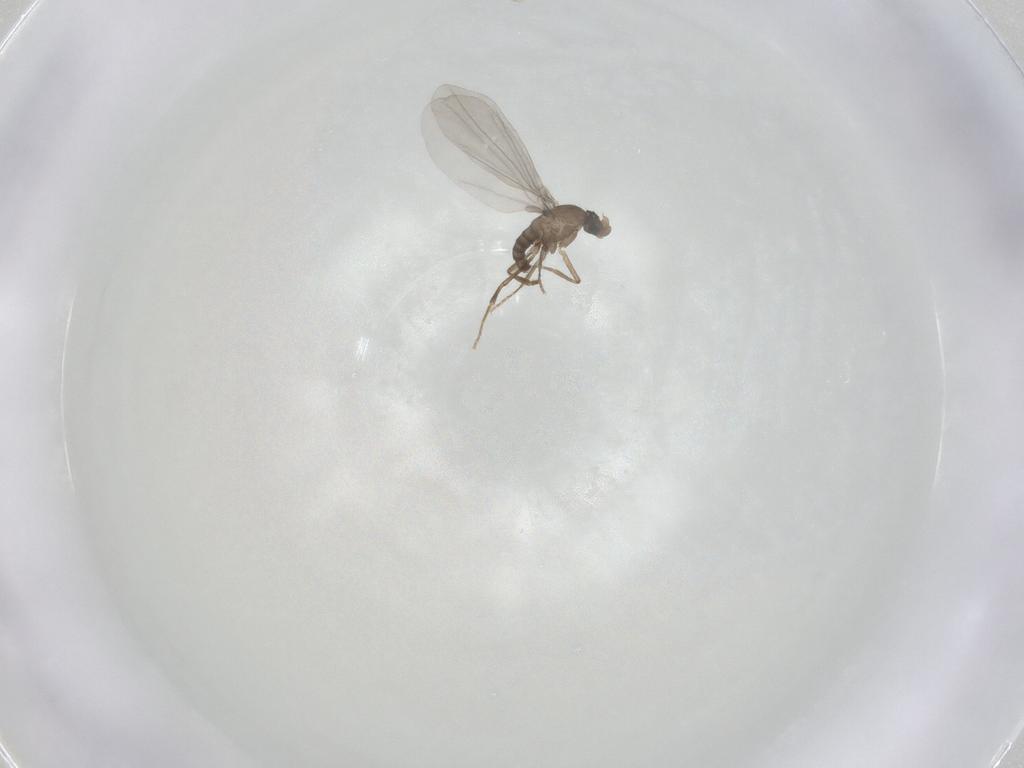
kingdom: Animalia
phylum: Arthropoda
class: Insecta
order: Diptera
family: Phoridae
